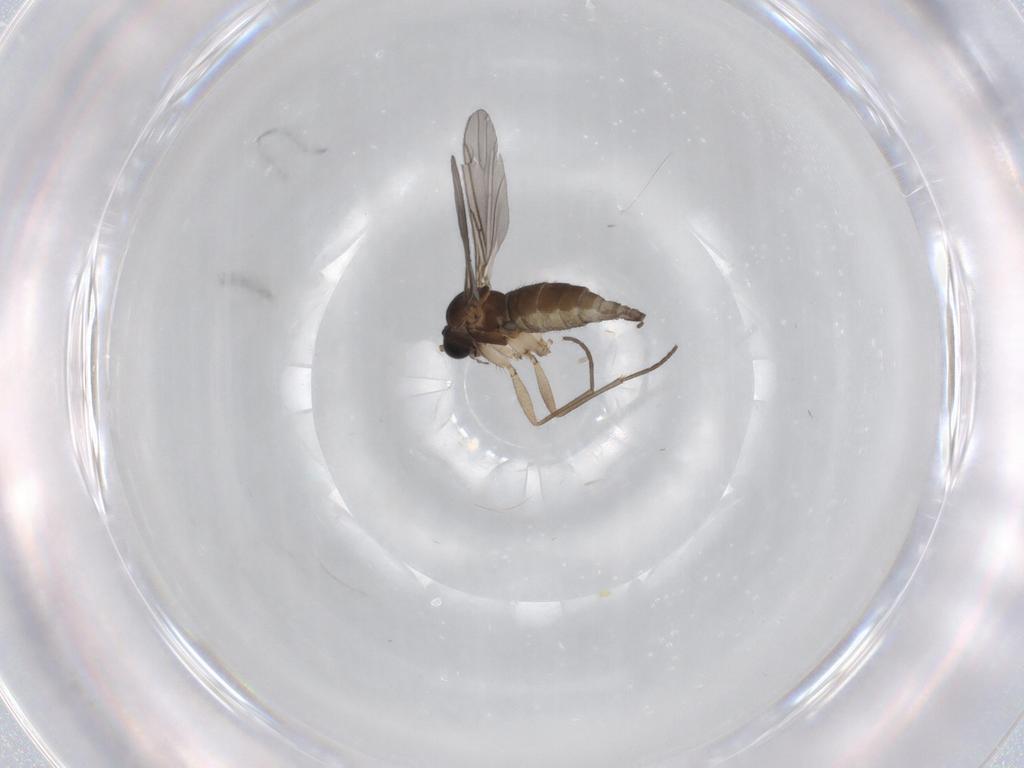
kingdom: Animalia
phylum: Arthropoda
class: Insecta
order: Diptera
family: Sciaridae
